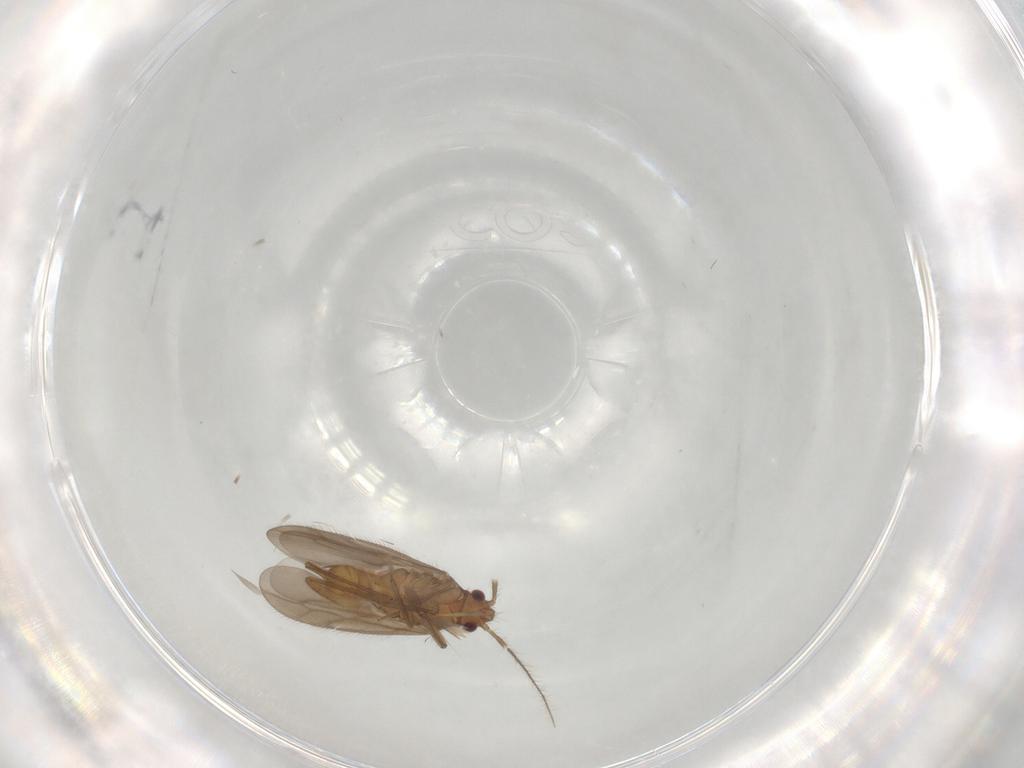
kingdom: Animalia
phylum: Arthropoda
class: Insecta
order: Hemiptera
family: Ceratocombidae
